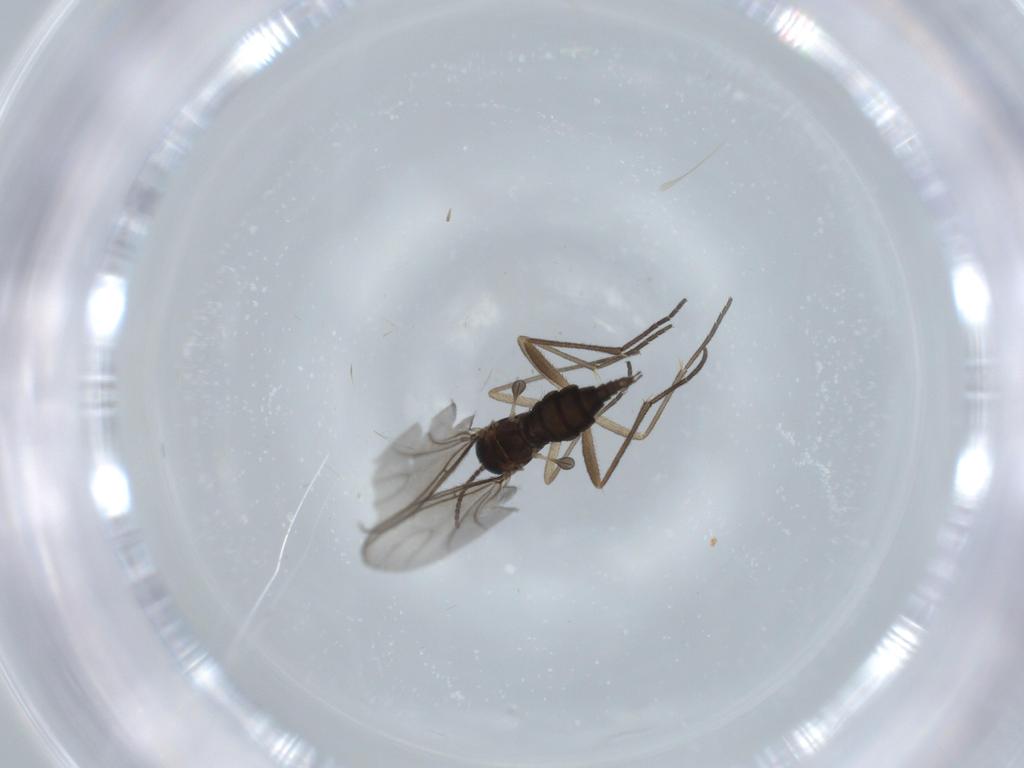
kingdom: Animalia
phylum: Arthropoda
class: Insecta
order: Diptera
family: Sciaridae
